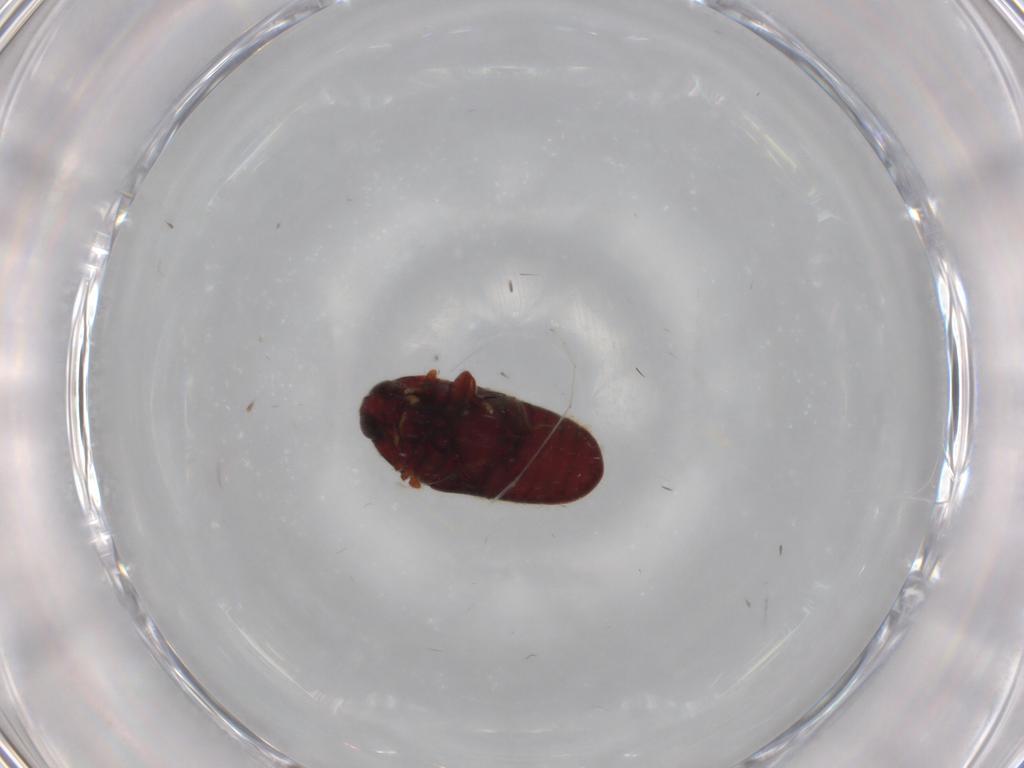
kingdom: Animalia
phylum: Arthropoda
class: Insecta
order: Coleoptera
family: Throscidae
